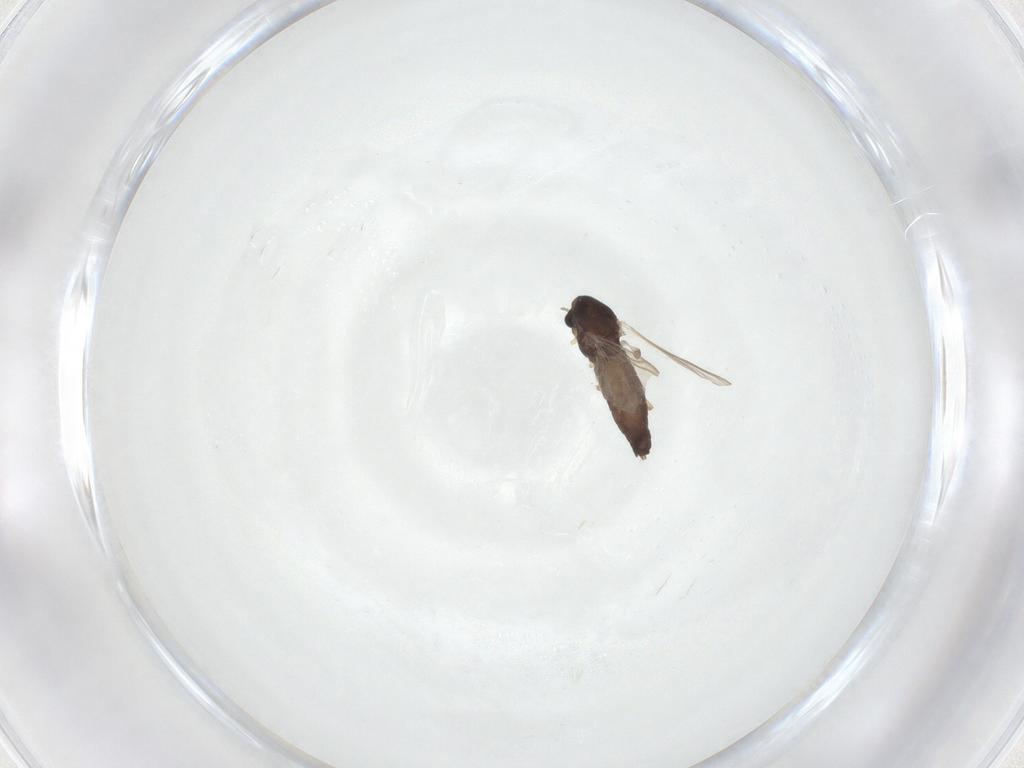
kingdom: Animalia
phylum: Arthropoda
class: Insecta
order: Diptera
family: Chironomidae
